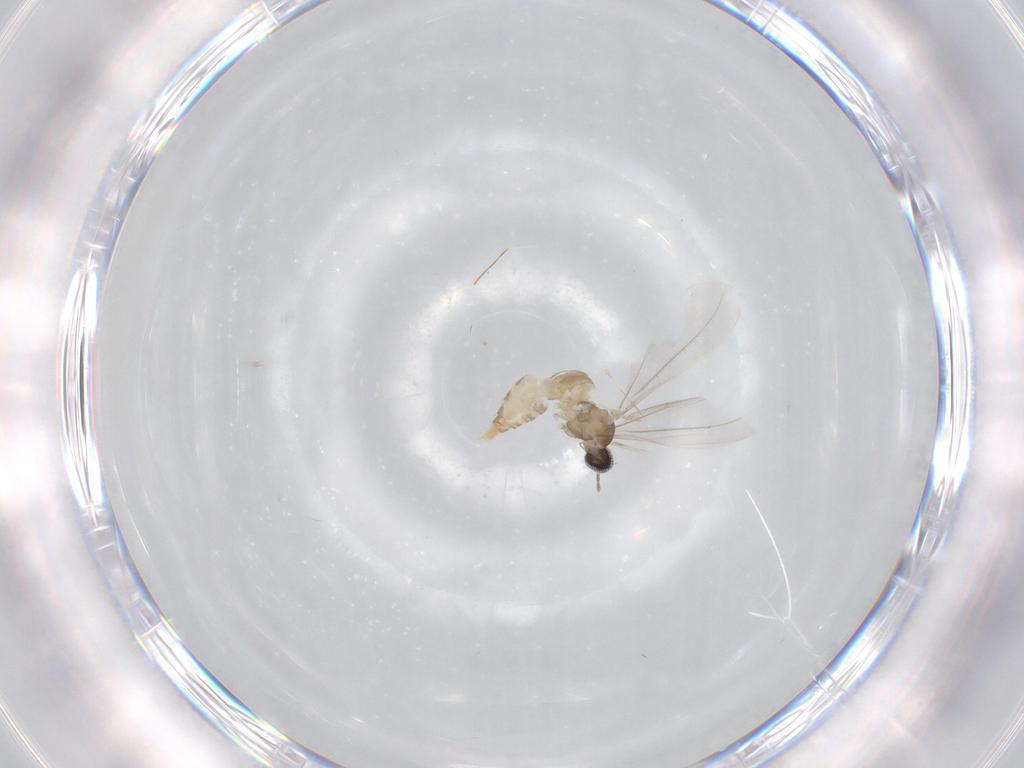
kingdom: Animalia
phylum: Arthropoda
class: Insecta
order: Diptera
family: Cecidomyiidae
